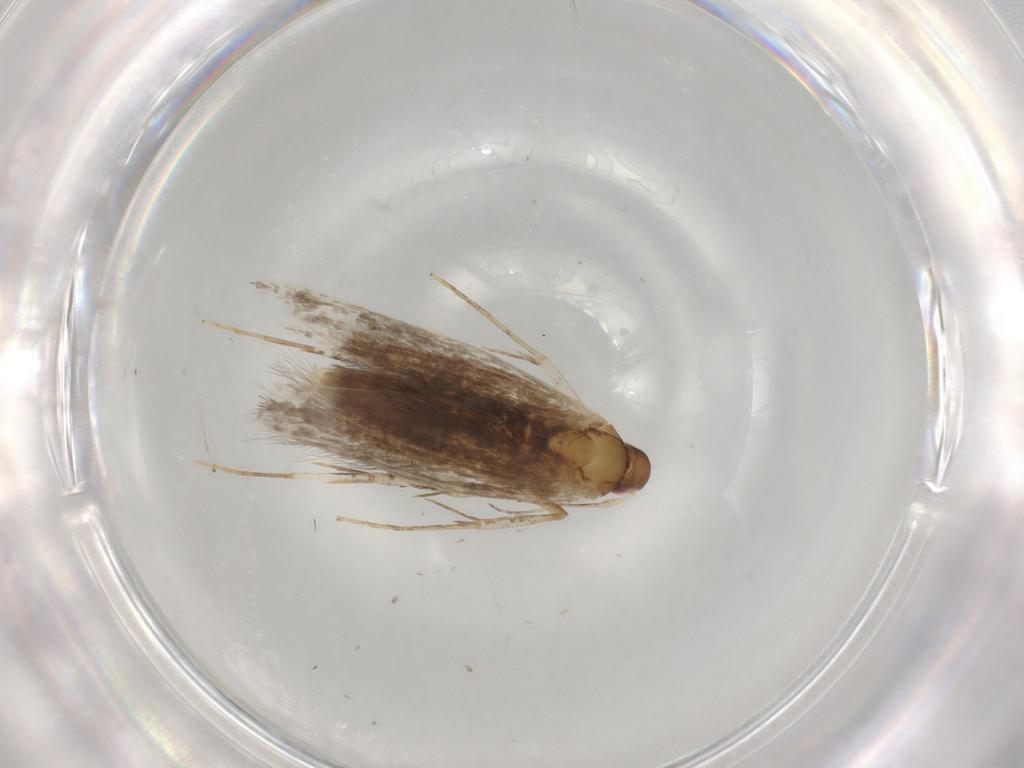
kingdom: Animalia
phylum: Arthropoda
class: Insecta
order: Lepidoptera
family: Cosmopterigidae
